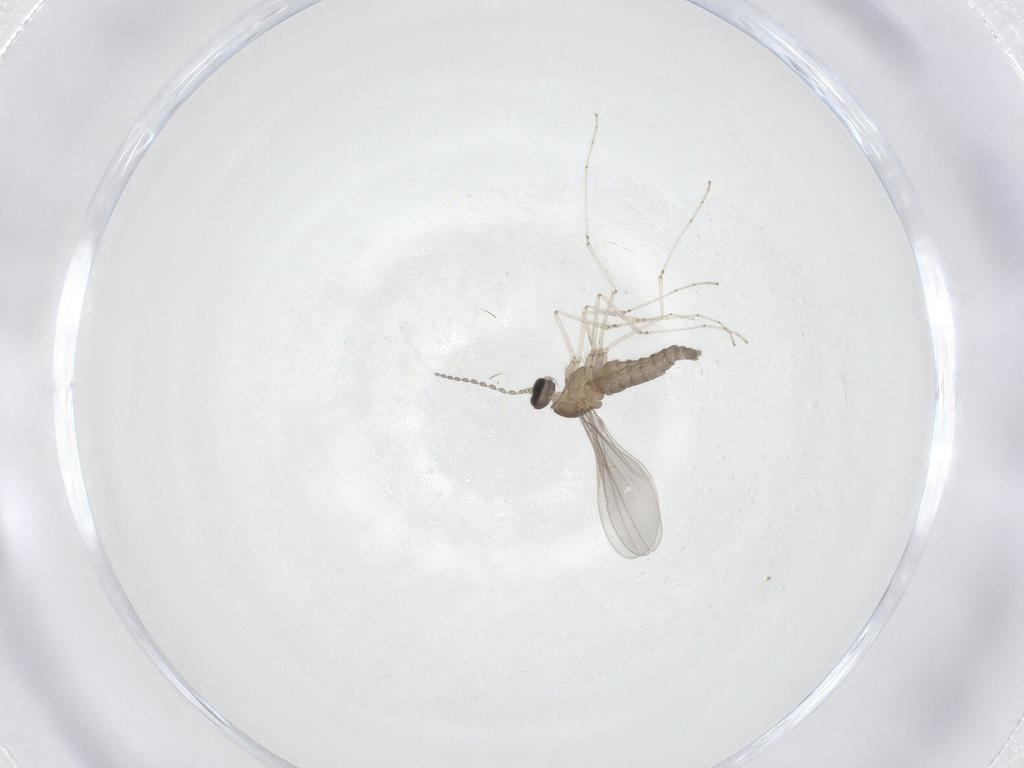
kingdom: Animalia
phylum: Arthropoda
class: Insecta
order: Diptera
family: Cecidomyiidae
